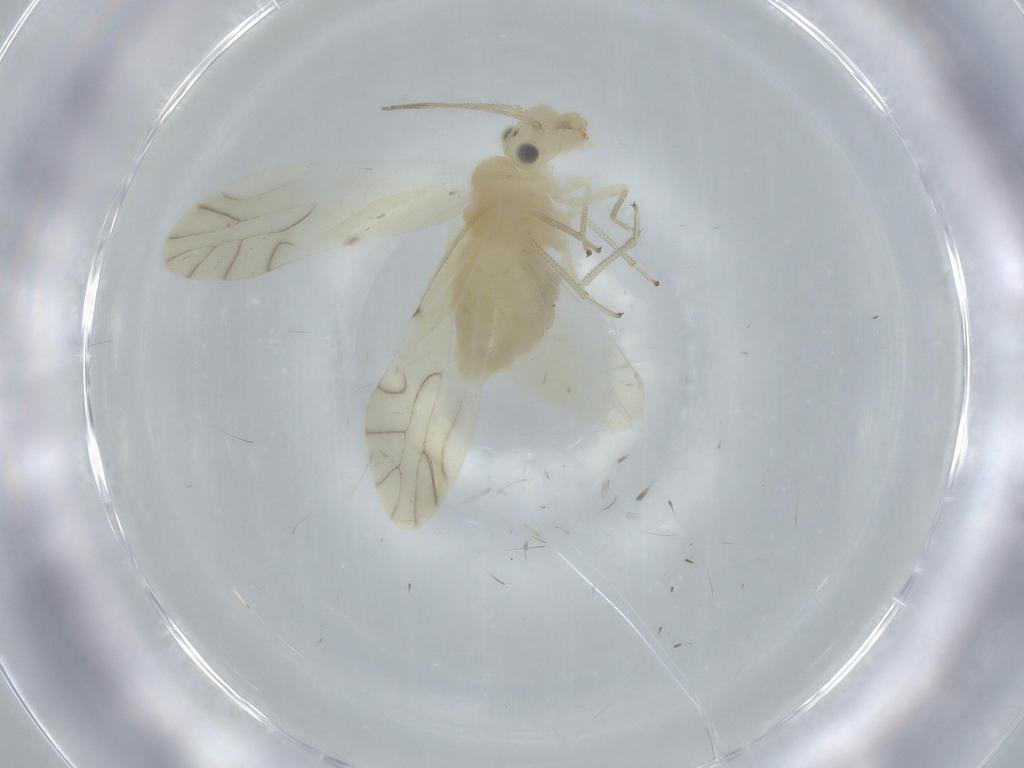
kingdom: Animalia
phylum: Arthropoda
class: Insecta
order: Psocodea
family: Caeciliusidae
